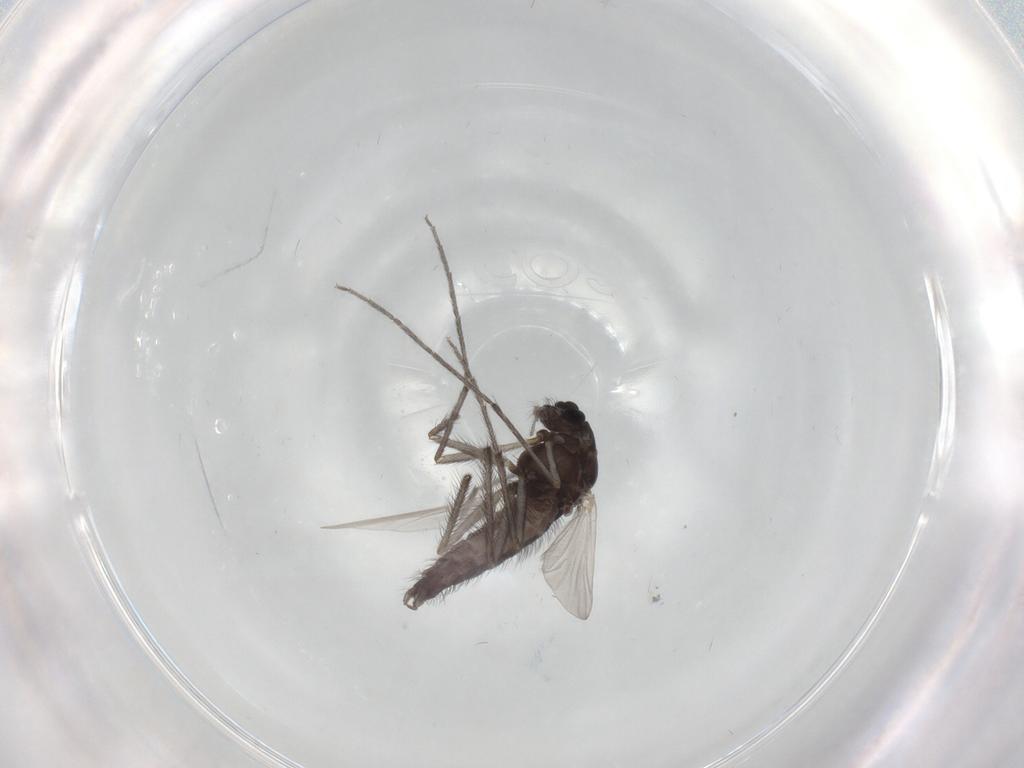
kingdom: Animalia
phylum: Arthropoda
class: Insecta
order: Diptera
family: Chironomidae
